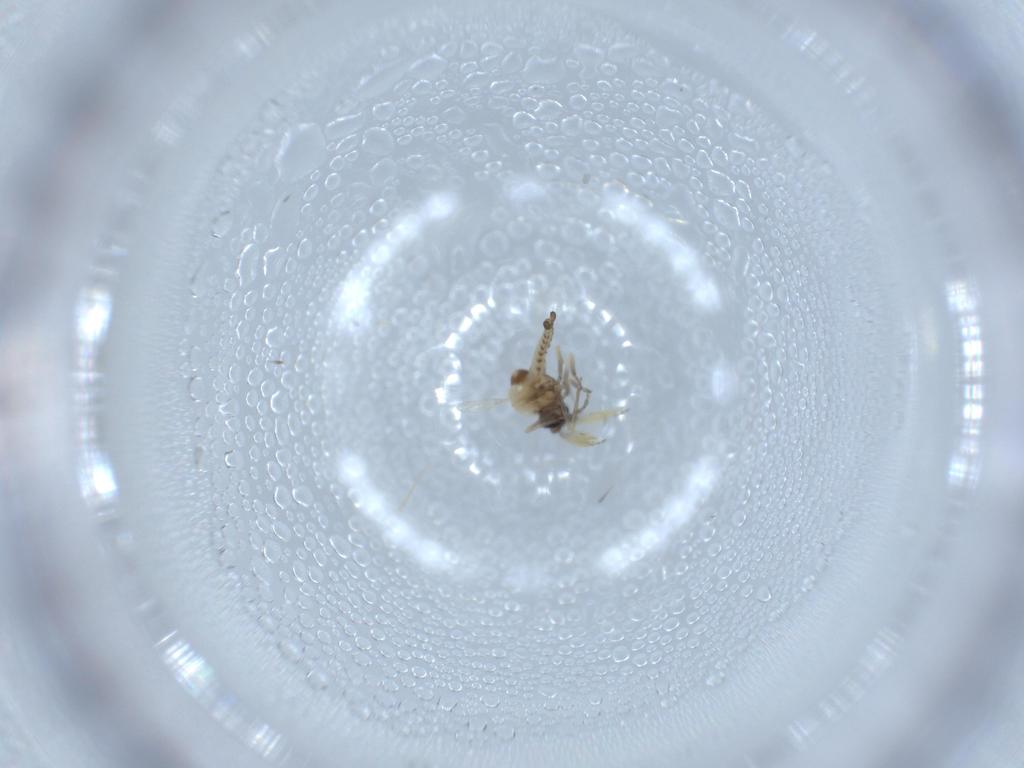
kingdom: Animalia
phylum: Arthropoda
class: Insecta
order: Diptera
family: Ceratopogonidae
